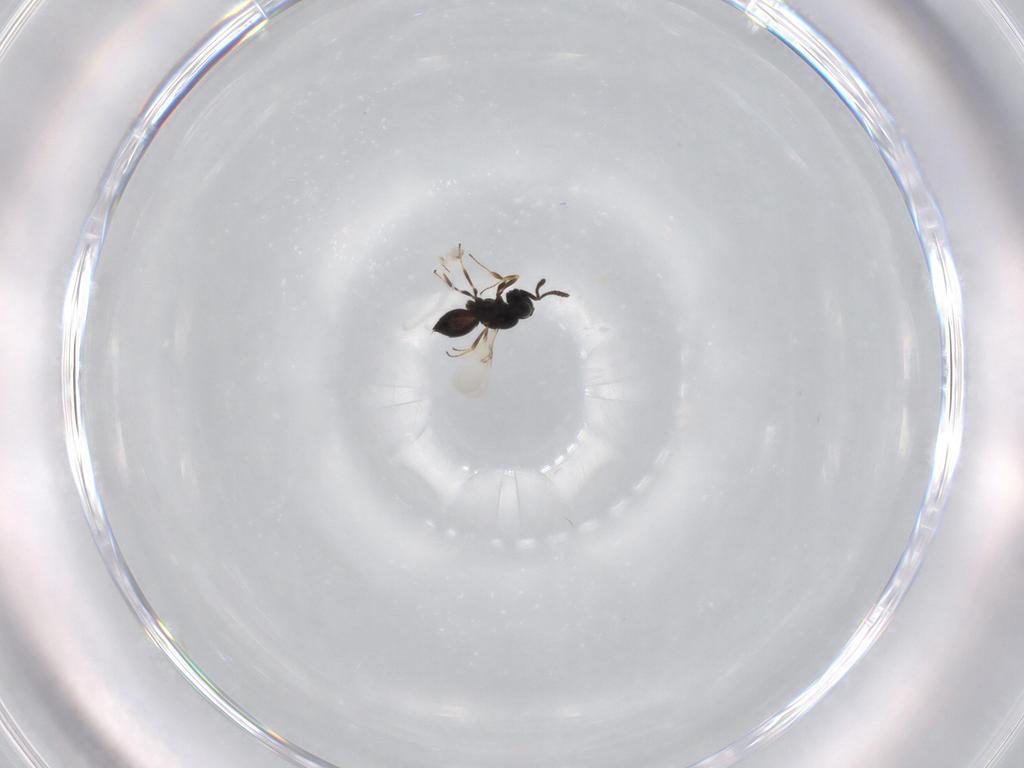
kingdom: Animalia
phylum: Arthropoda
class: Insecta
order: Hymenoptera
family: Scelionidae
